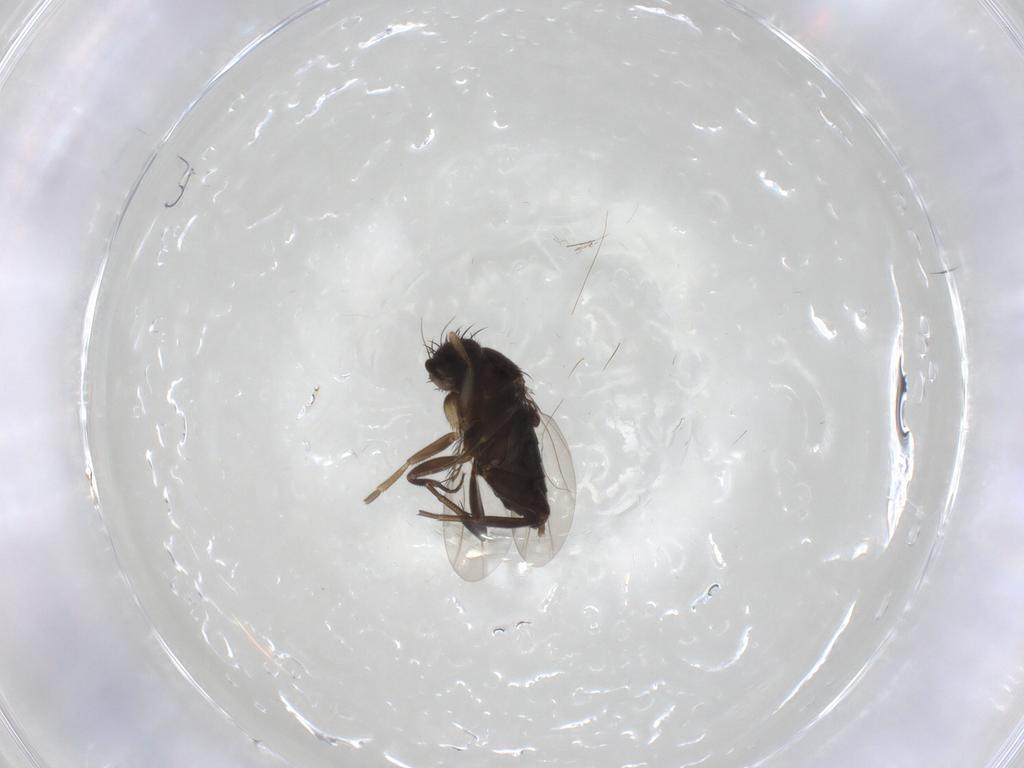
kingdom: Animalia
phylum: Arthropoda
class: Insecta
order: Diptera
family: Phoridae
